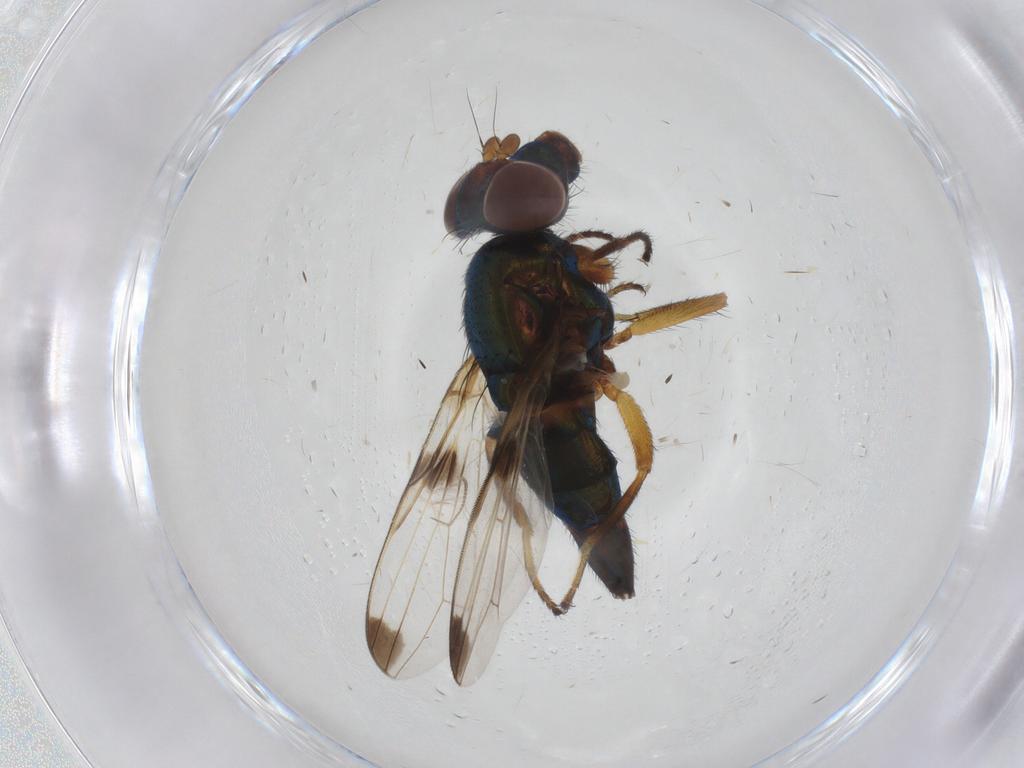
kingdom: Animalia
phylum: Arthropoda
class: Insecta
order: Diptera
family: Ulidiidae
